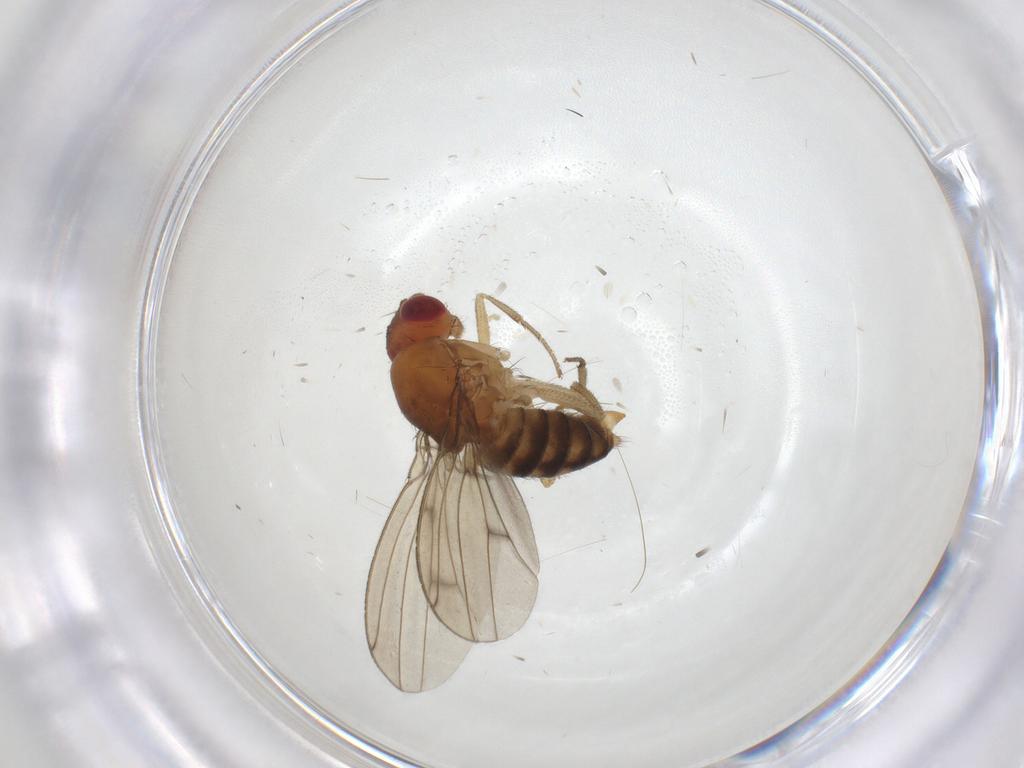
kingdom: Animalia
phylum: Arthropoda
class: Insecta
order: Diptera
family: Drosophilidae
